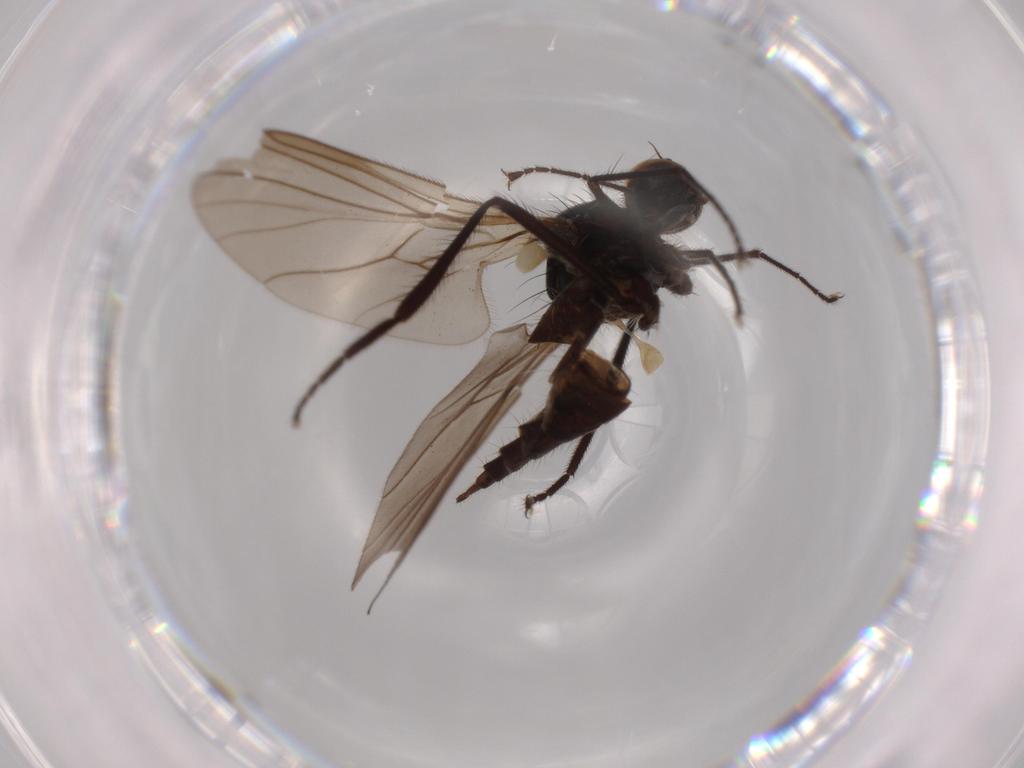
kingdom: Animalia
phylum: Arthropoda
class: Insecta
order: Diptera
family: Hybotidae
